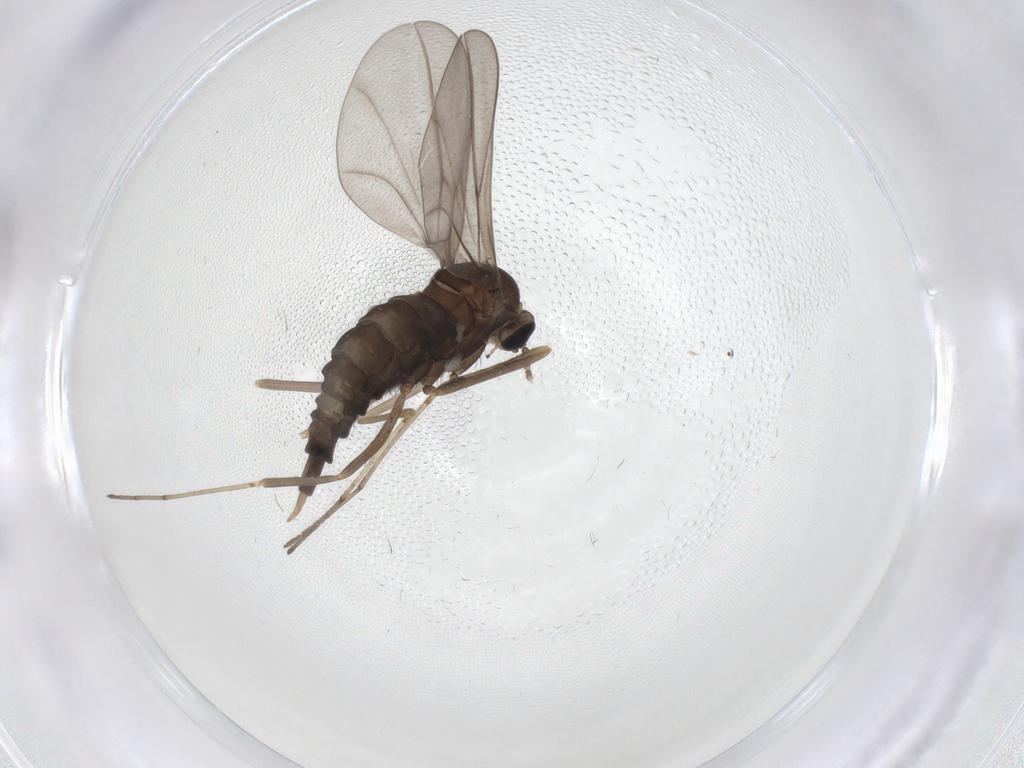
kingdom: Animalia
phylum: Arthropoda
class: Insecta
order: Diptera
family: Cecidomyiidae
